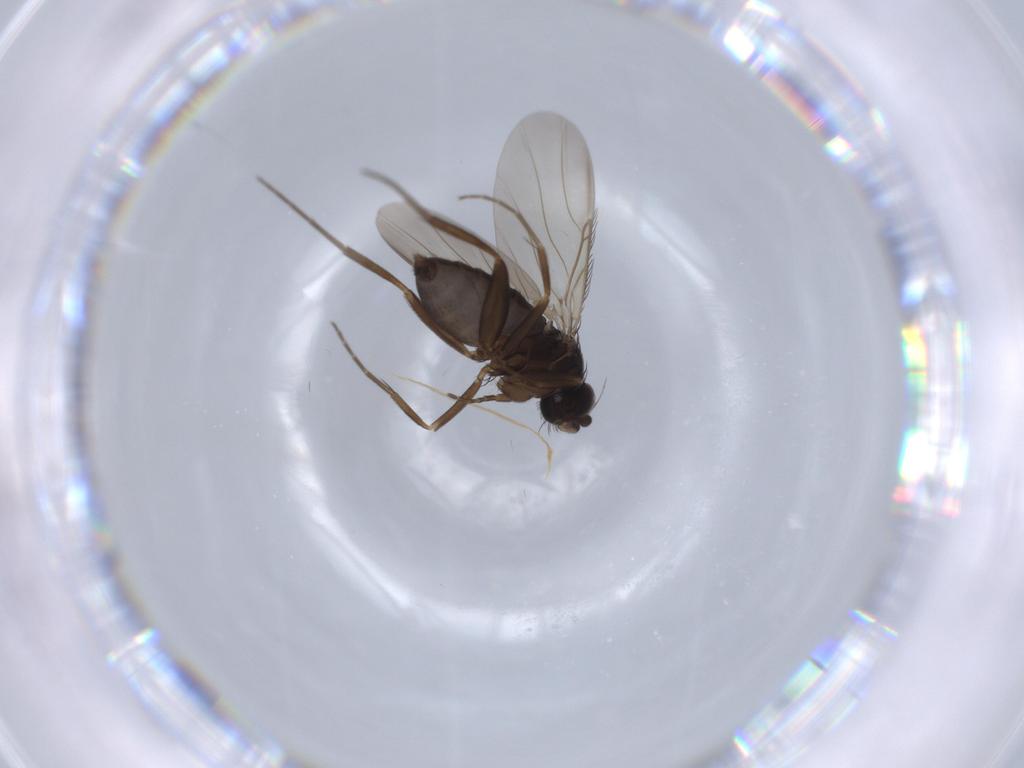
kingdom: Animalia
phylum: Arthropoda
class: Insecta
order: Diptera
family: Phoridae
